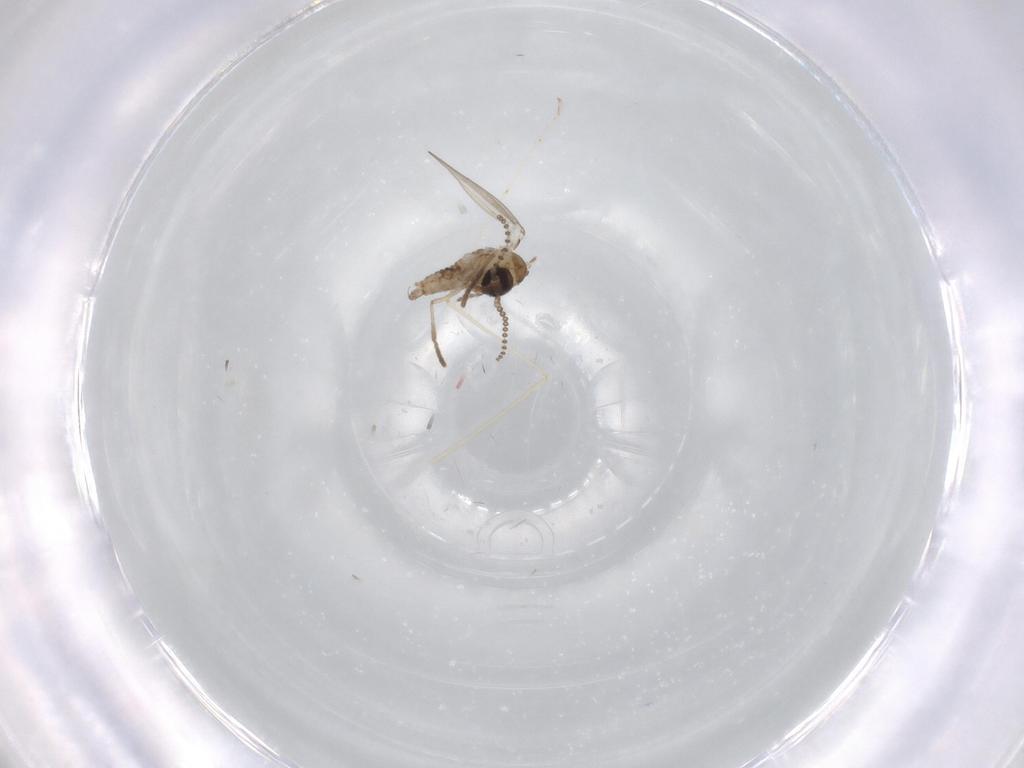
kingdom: Animalia
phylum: Arthropoda
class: Insecta
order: Diptera
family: Psychodidae
